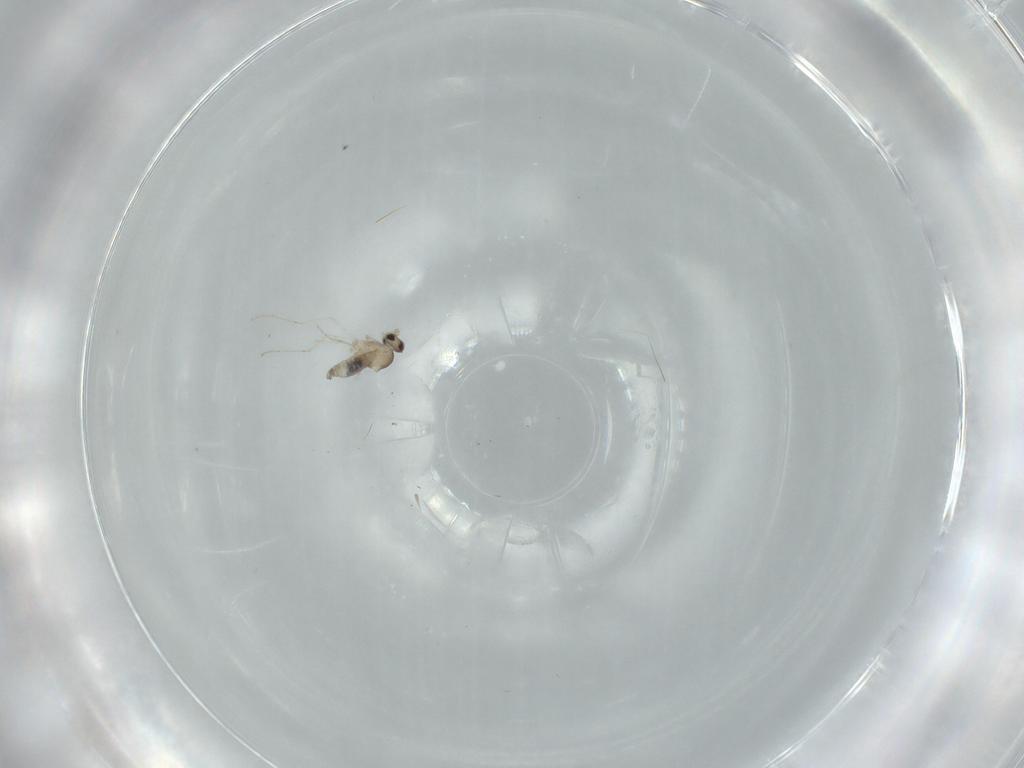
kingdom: Animalia
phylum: Arthropoda
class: Insecta
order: Diptera
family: Cecidomyiidae
